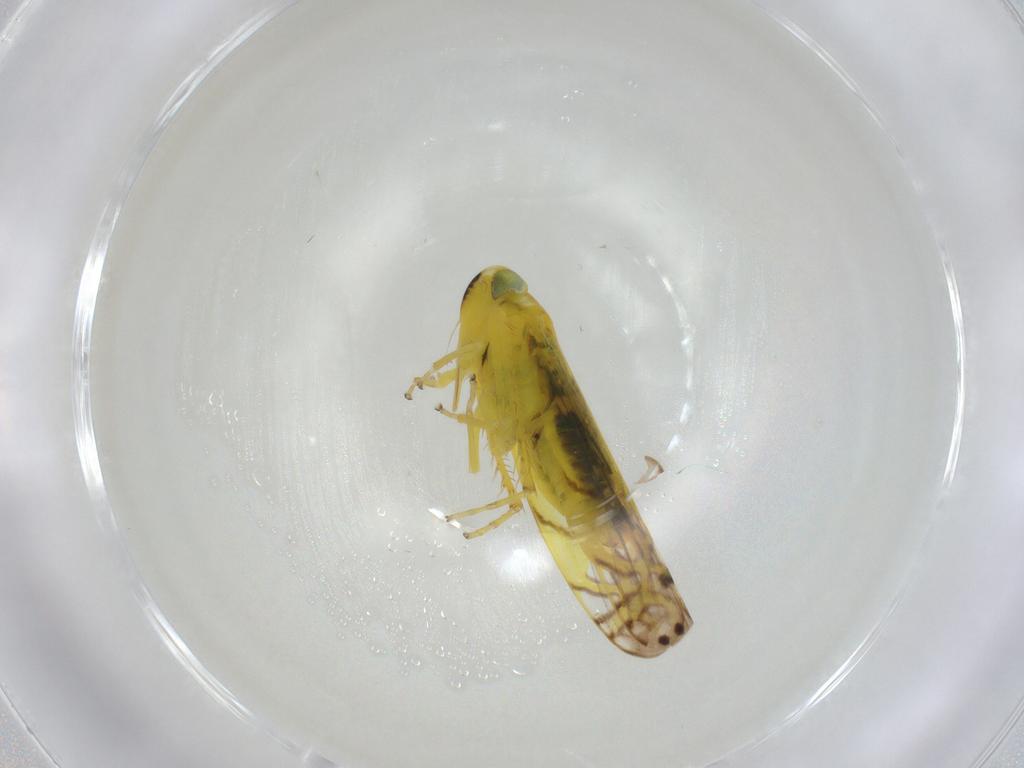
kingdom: Animalia
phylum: Arthropoda
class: Insecta
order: Hemiptera
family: Cicadellidae
